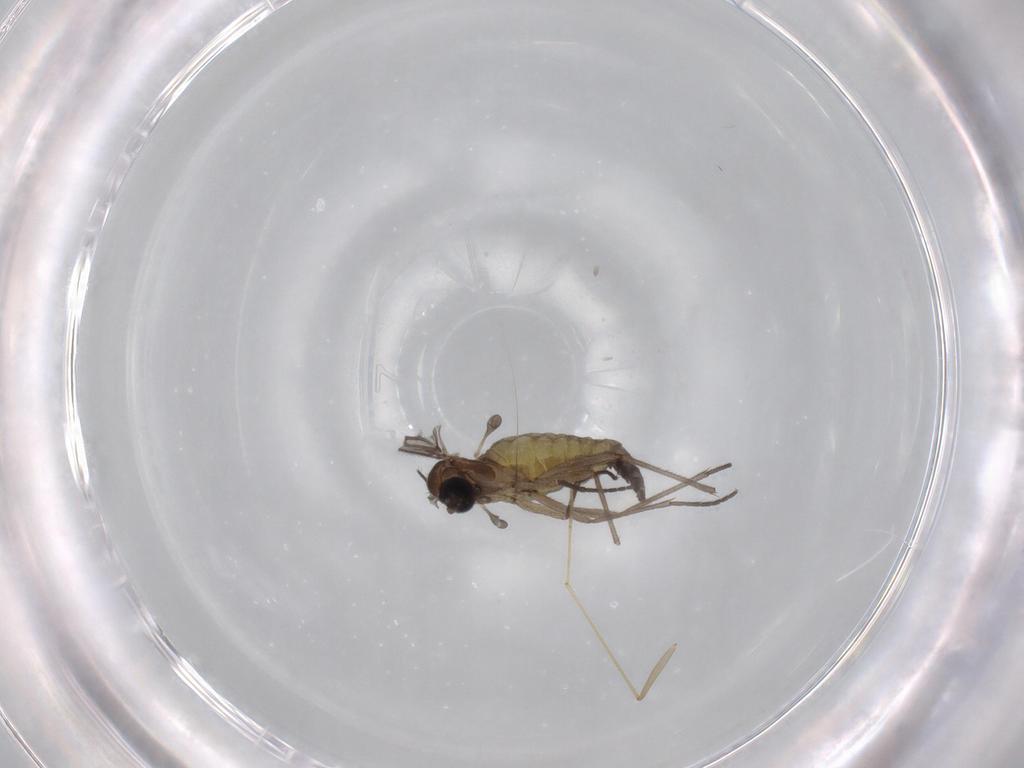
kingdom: Animalia
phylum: Arthropoda
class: Insecta
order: Diptera
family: Sciaridae
